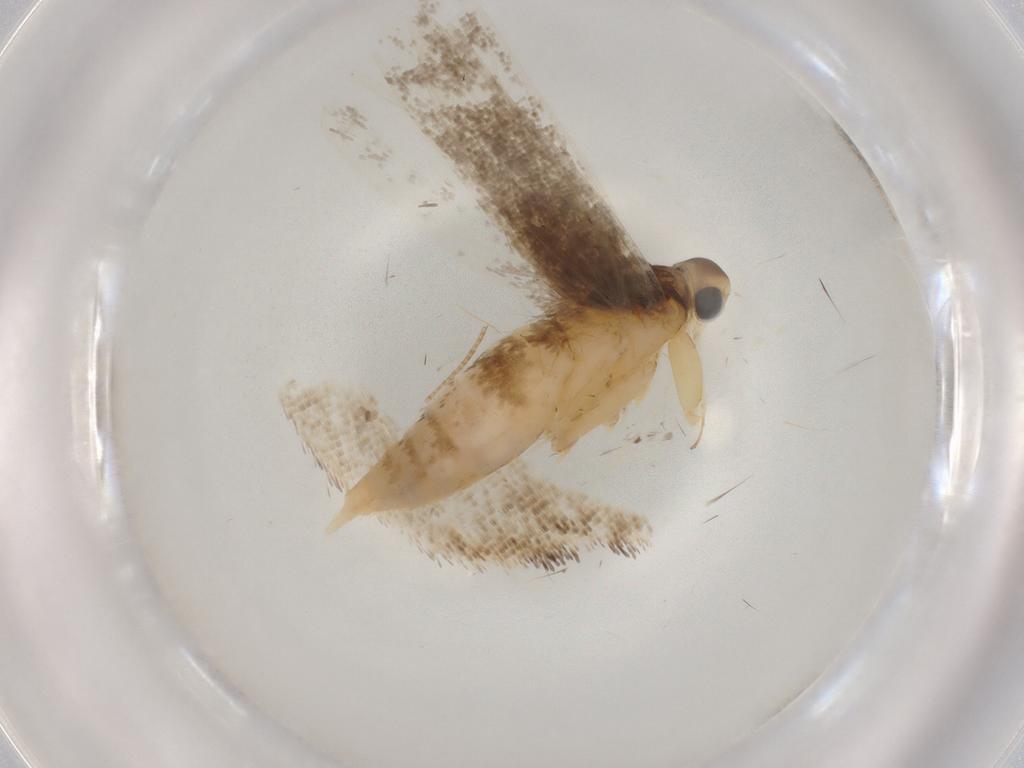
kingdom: Animalia
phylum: Arthropoda
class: Insecta
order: Lepidoptera
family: Lecithoceridae
